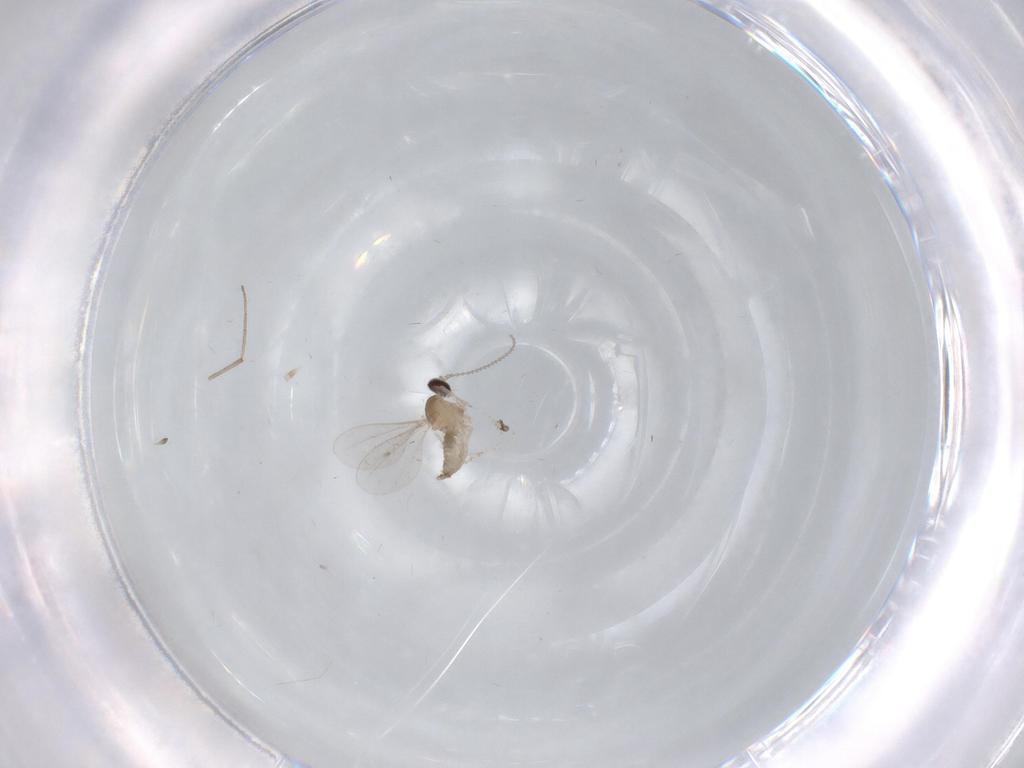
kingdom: Animalia
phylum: Arthropoda
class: Insecta
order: Diptera
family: Cecidomyiidae
